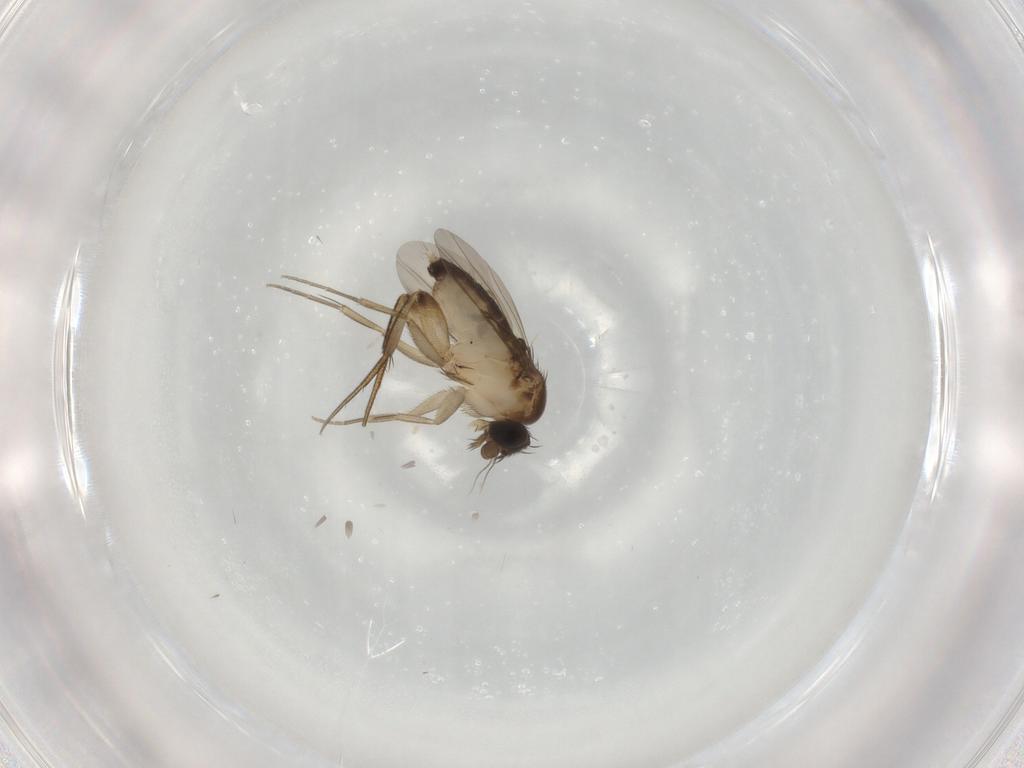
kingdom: Animalia
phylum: Arthropoda
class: Insecta
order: Diptera
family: Phoridae
